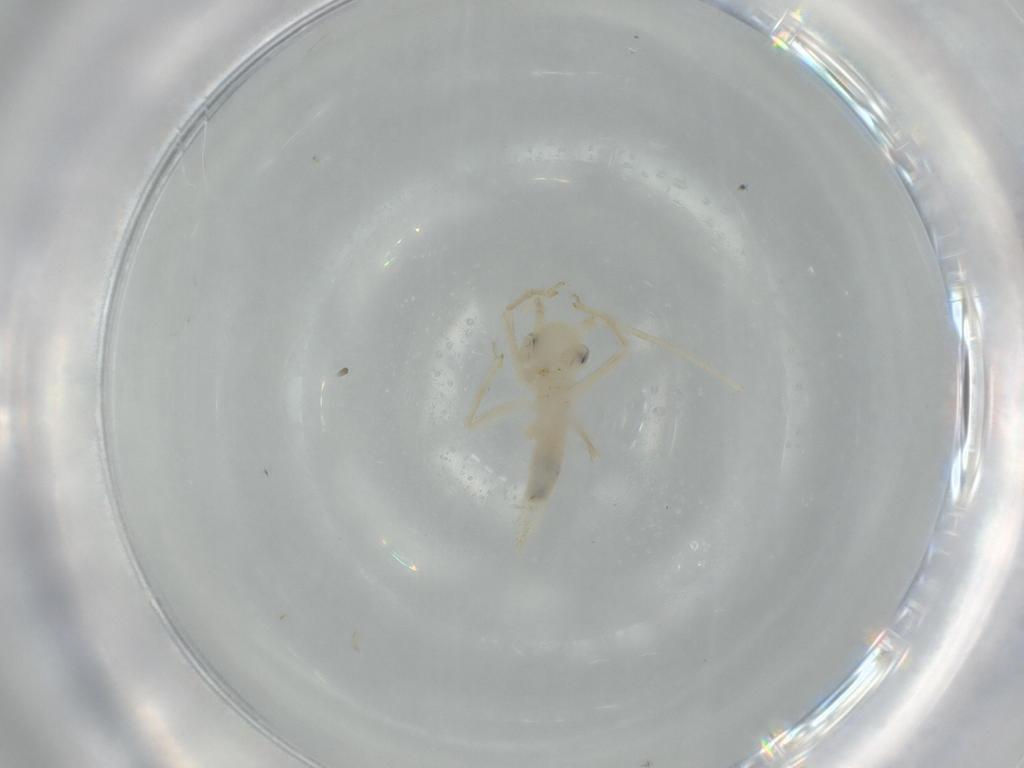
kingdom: Animalia
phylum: Arthropoda
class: Insecta
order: Orthoptera
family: Trigonidiidae
